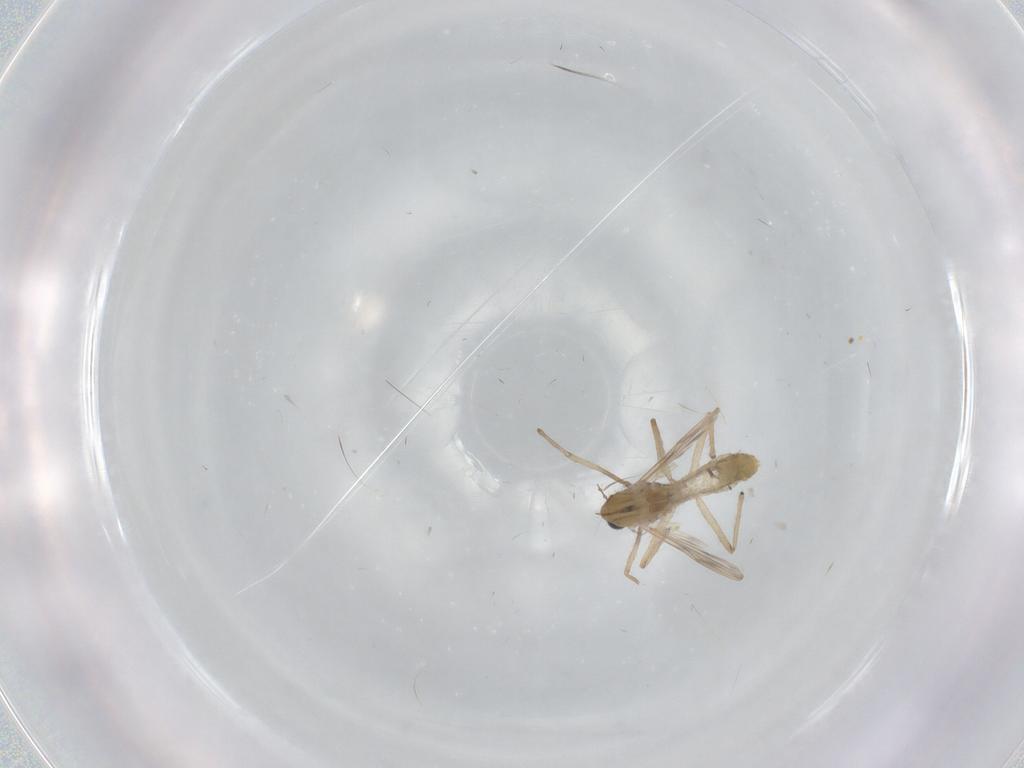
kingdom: Animalia
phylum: Arthropoda
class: Insecta
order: Diptera
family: Chironomidae
